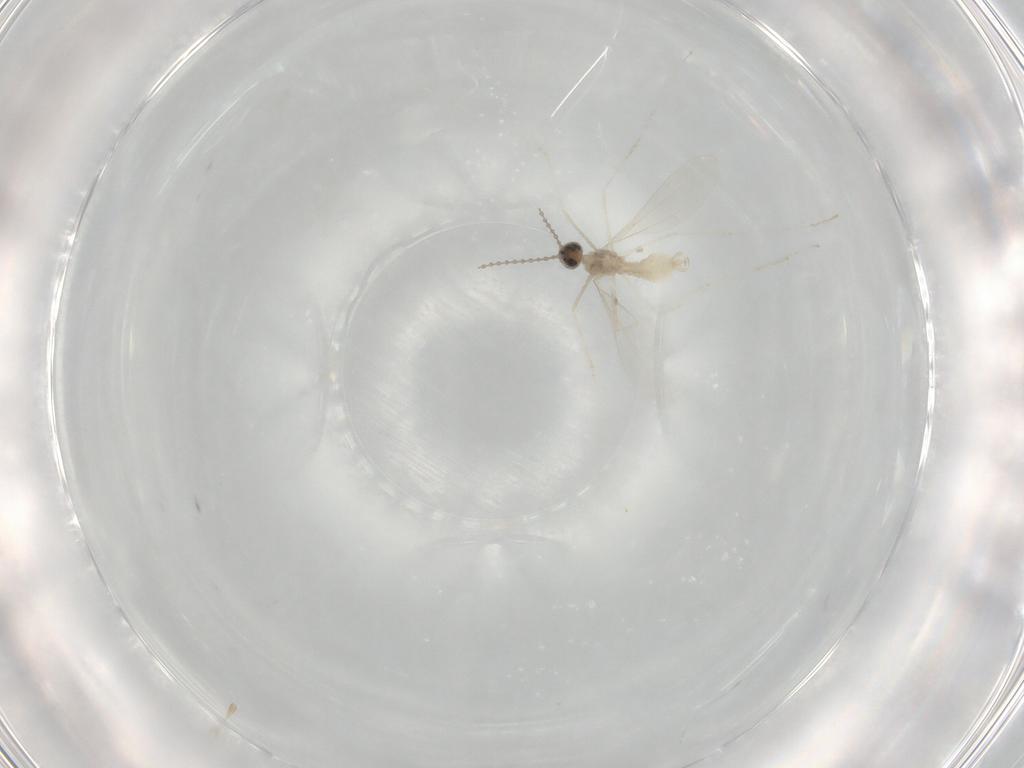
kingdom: Animalia
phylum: Arthropoda
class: Insecta
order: Diptera
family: Cecidomyiidae
